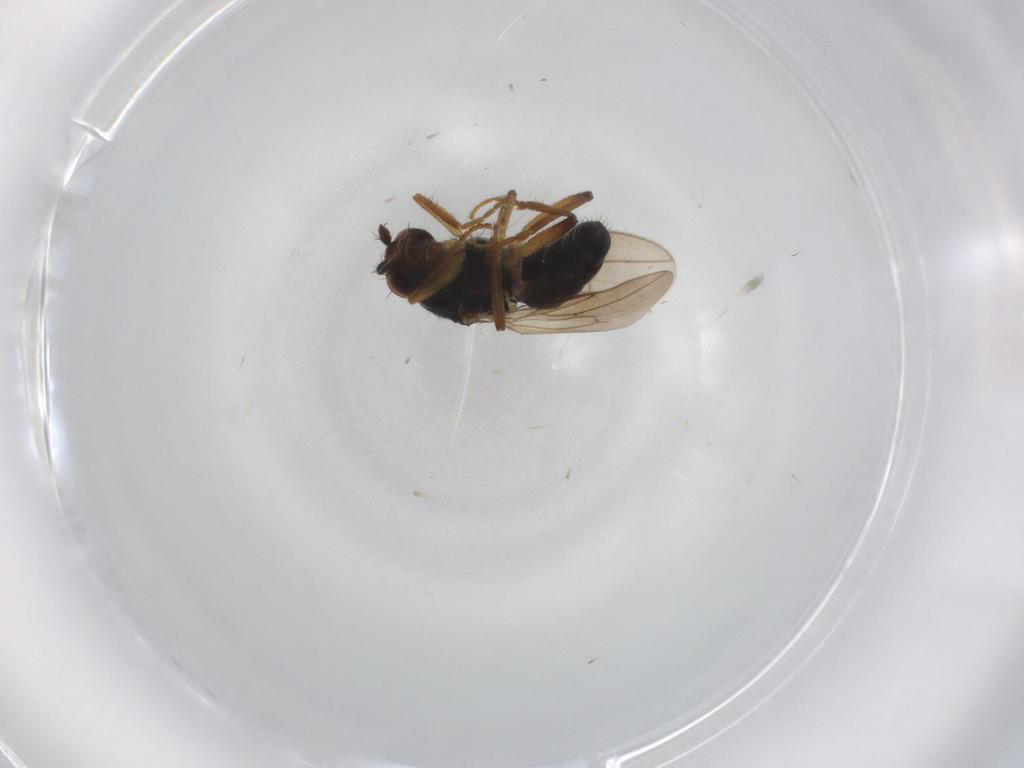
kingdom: Animalia
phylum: Arthropoda
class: Insecta
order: Diptera
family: Sphaeroceridae
